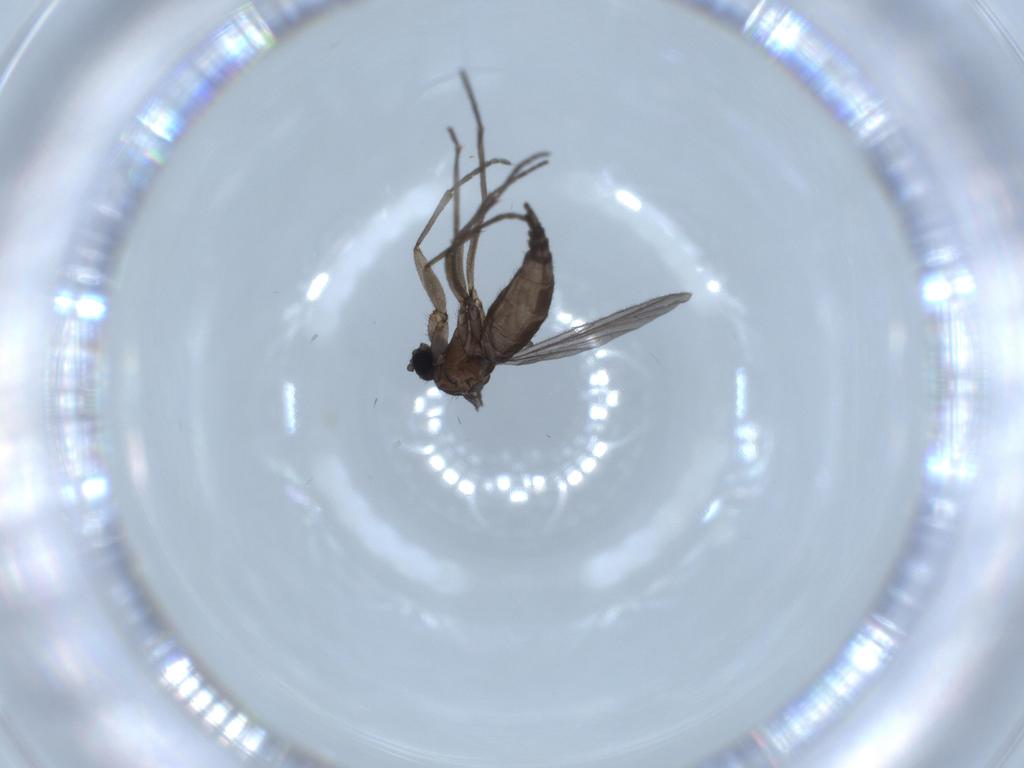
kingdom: Animalia
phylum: Arthropoda
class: Insecta
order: Diptera
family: Sciaridae
